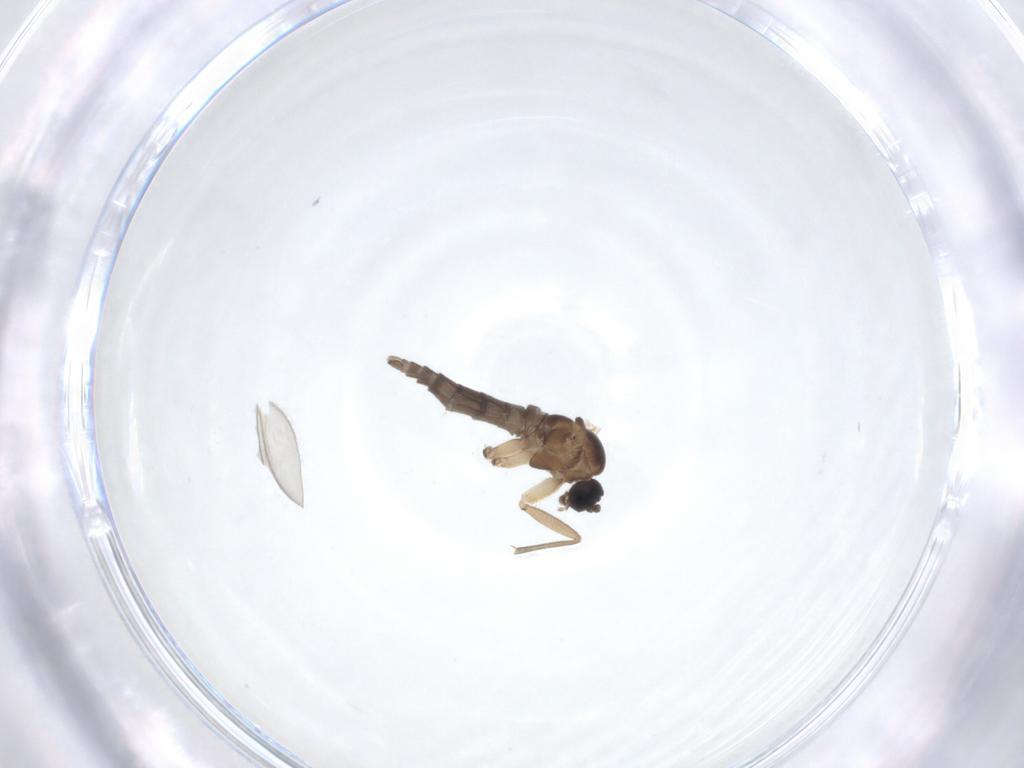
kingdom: Animalia
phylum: Arthropoda
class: Insecta
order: Diptera
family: Sciaridae
